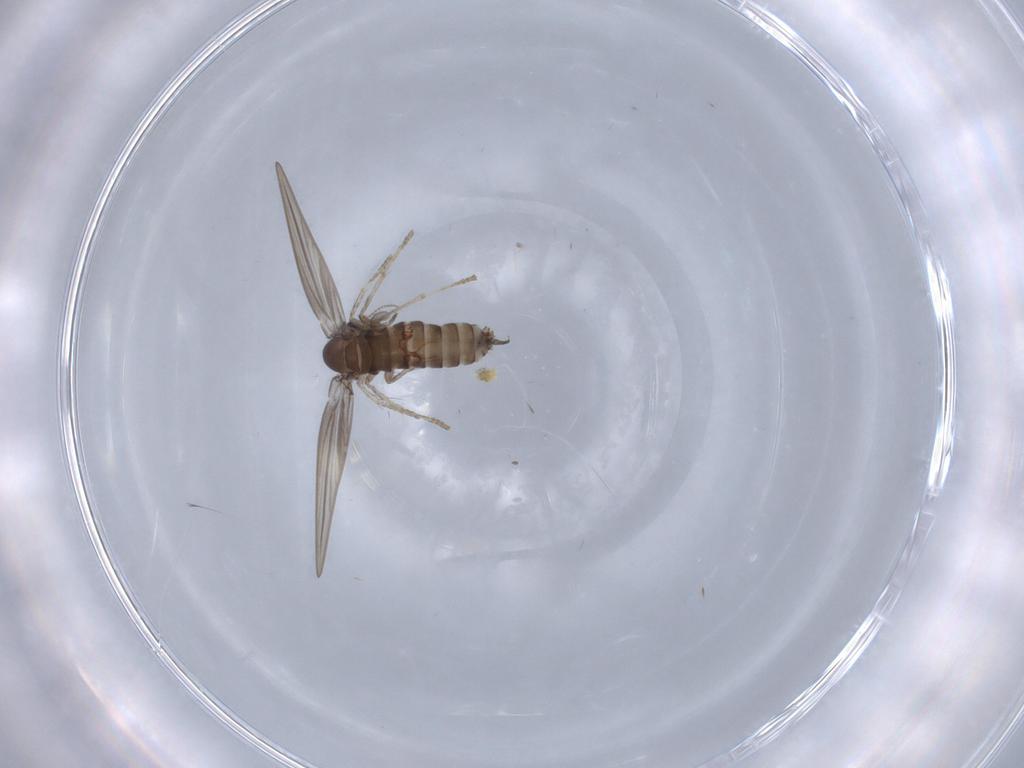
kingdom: Animalia
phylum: Arthropoda
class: Insecta
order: Diptera
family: Psychodidae
